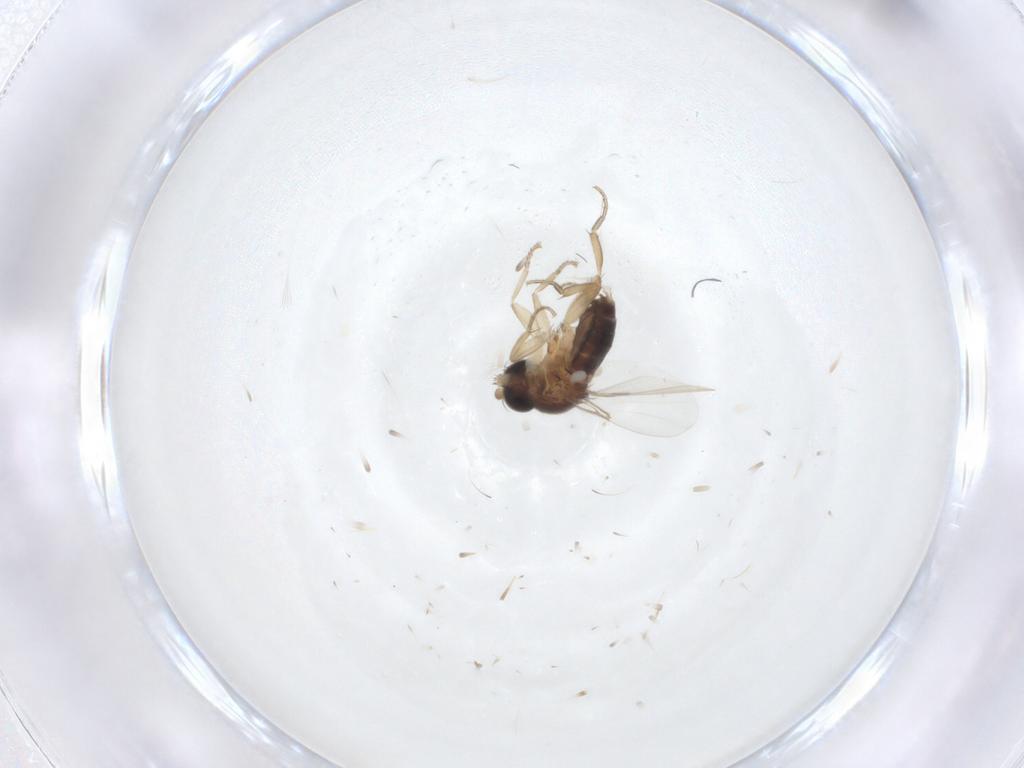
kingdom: Animalia
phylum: Arthropoda
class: Insecta
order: Diptera
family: Phoridae
